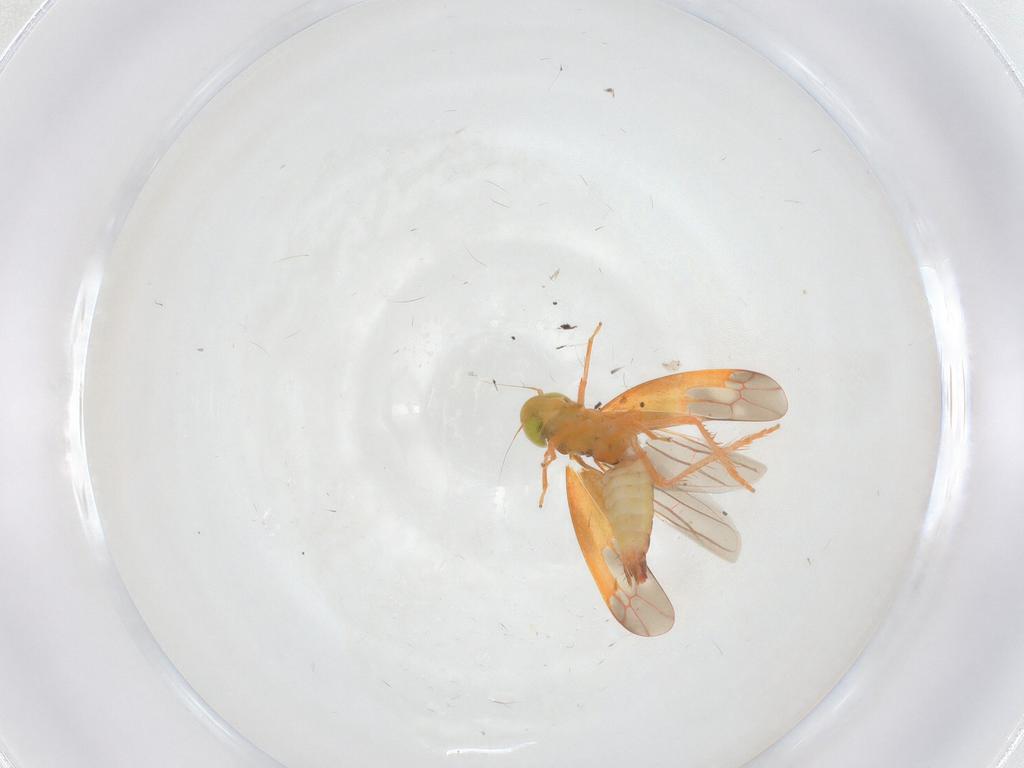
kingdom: Animalia
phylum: Arthropoda
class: Insecta
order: Hemiptera
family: Cicadellidae
